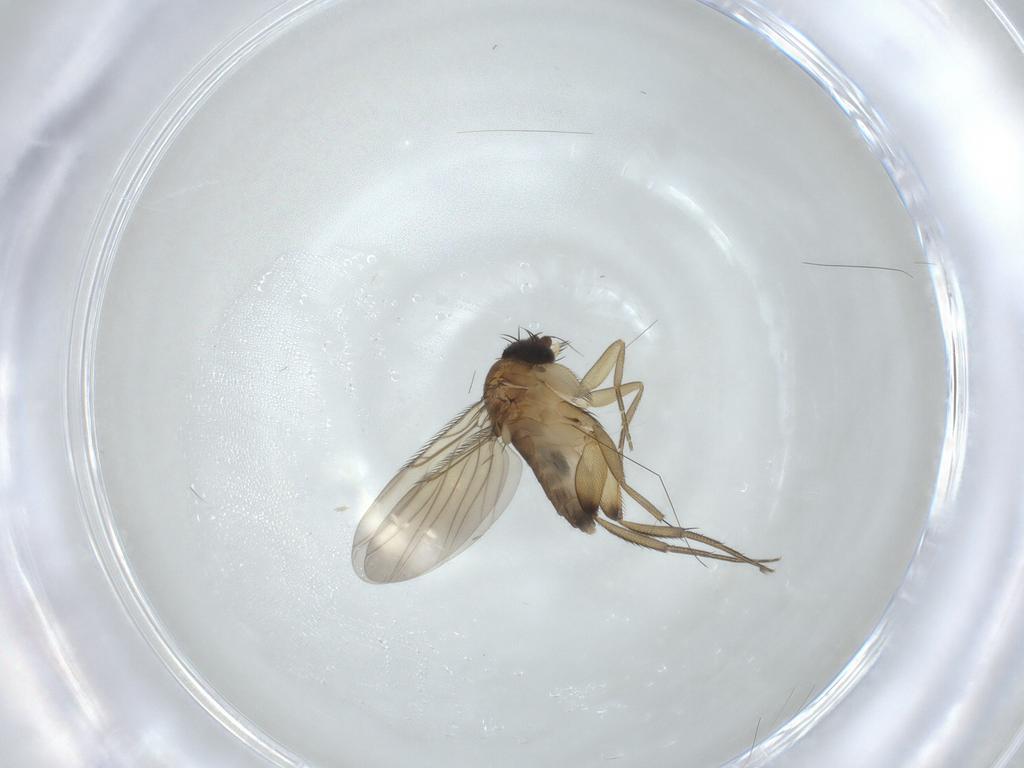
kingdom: Animalia
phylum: Arthropoda
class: Insecta
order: Diptera
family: Phoridae
